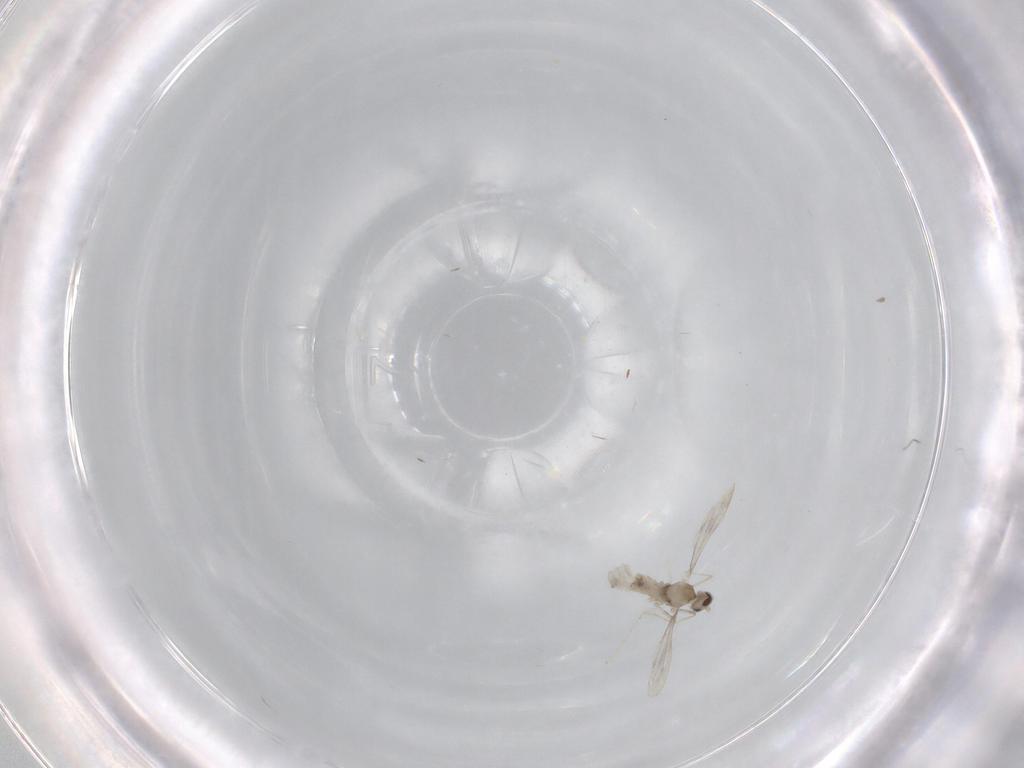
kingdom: Animalia
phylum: Arthropoda
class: Insecta
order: Diptera
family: Cecidomyiidae
